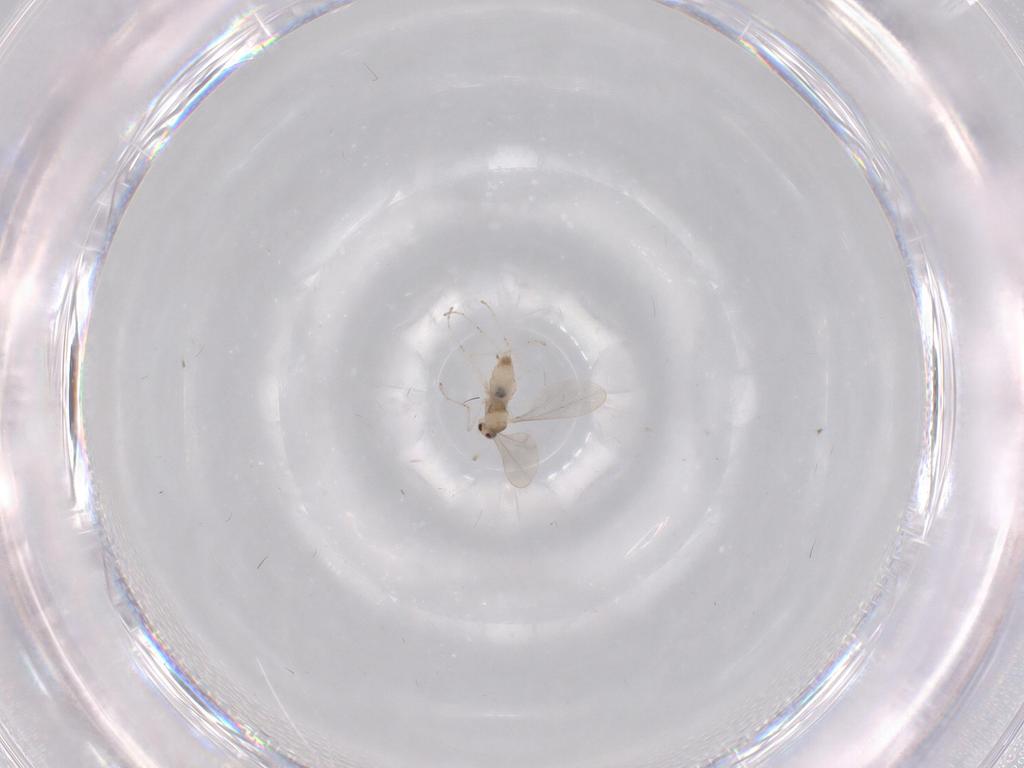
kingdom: Animalia
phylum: Arthropoda
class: Insecta
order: Diptera
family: Cecidomyiidae
